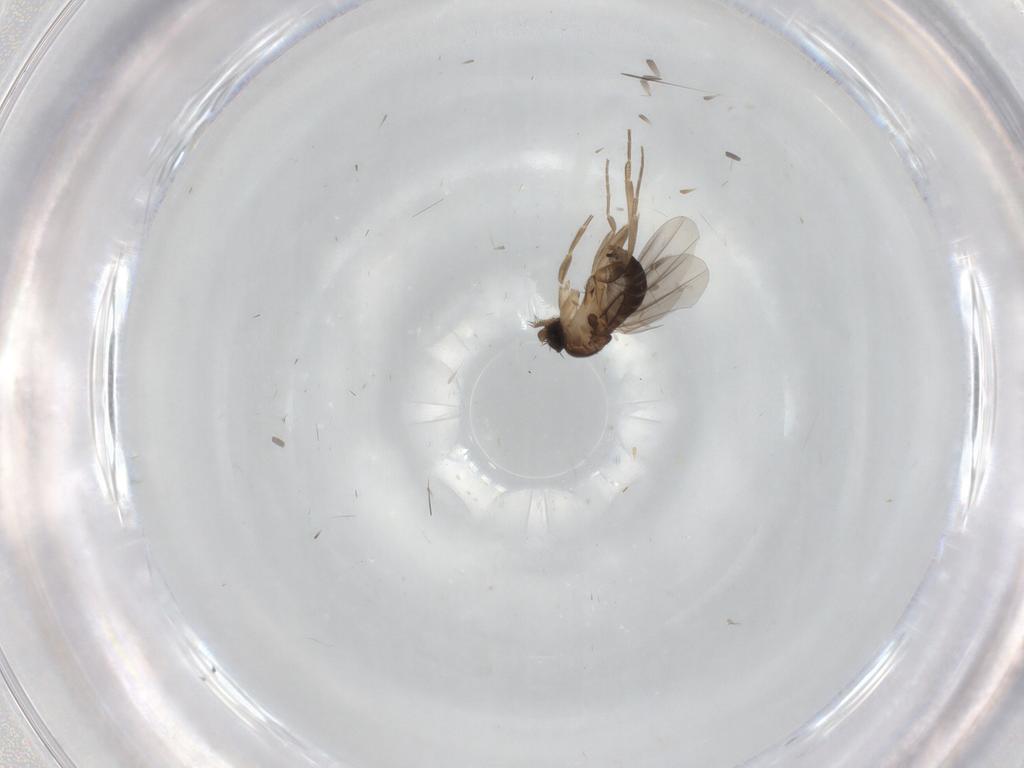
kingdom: Animalia
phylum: Arthropoda
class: Insecta
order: Diptera
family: Phoridae
